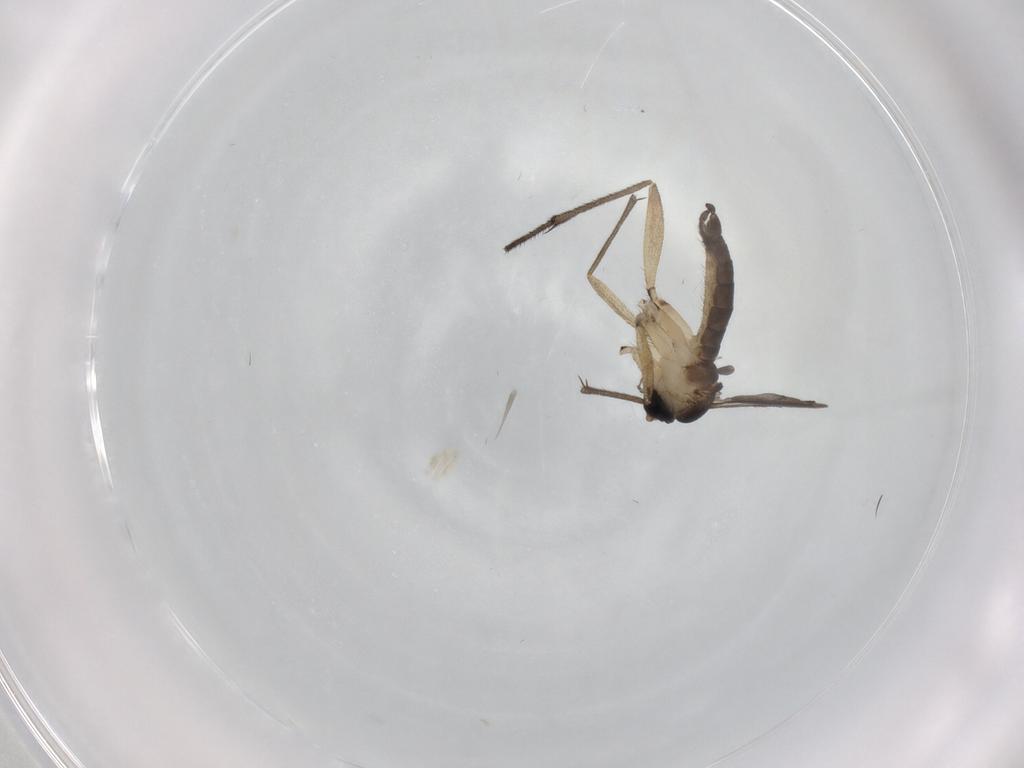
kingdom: Animalia
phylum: Arthropoda
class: Insecta
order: Diptera
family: Sciaridae
